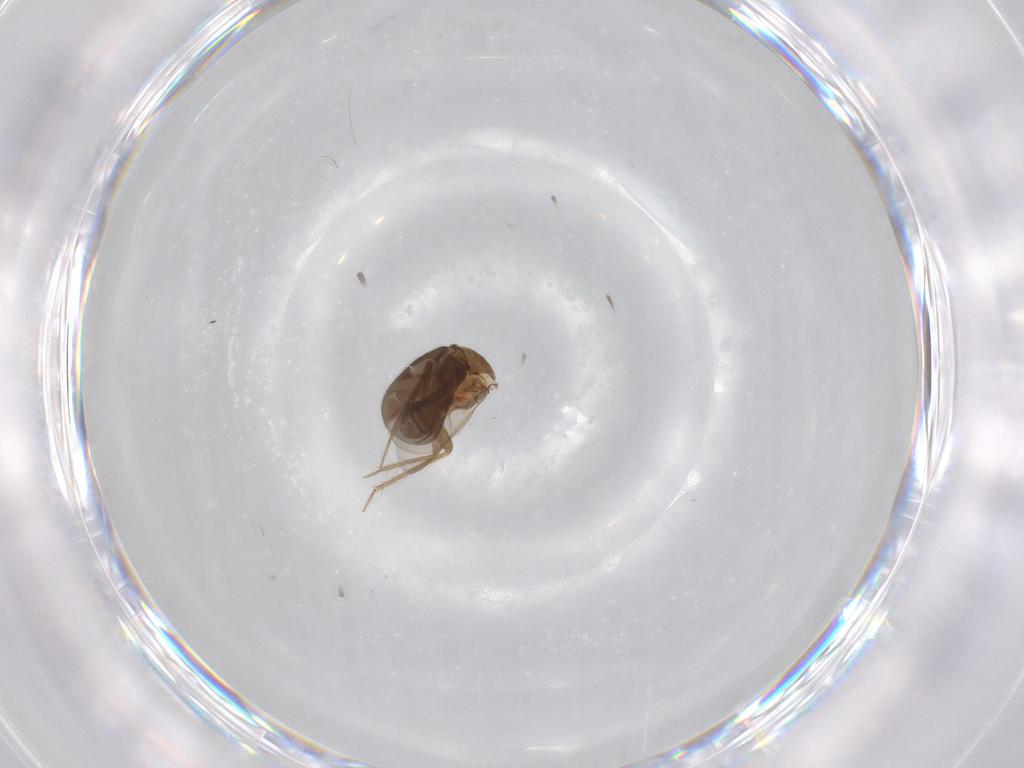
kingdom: Animalia
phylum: Arthropoda
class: Insecta
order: Hemiptera
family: Ceratocombidae
